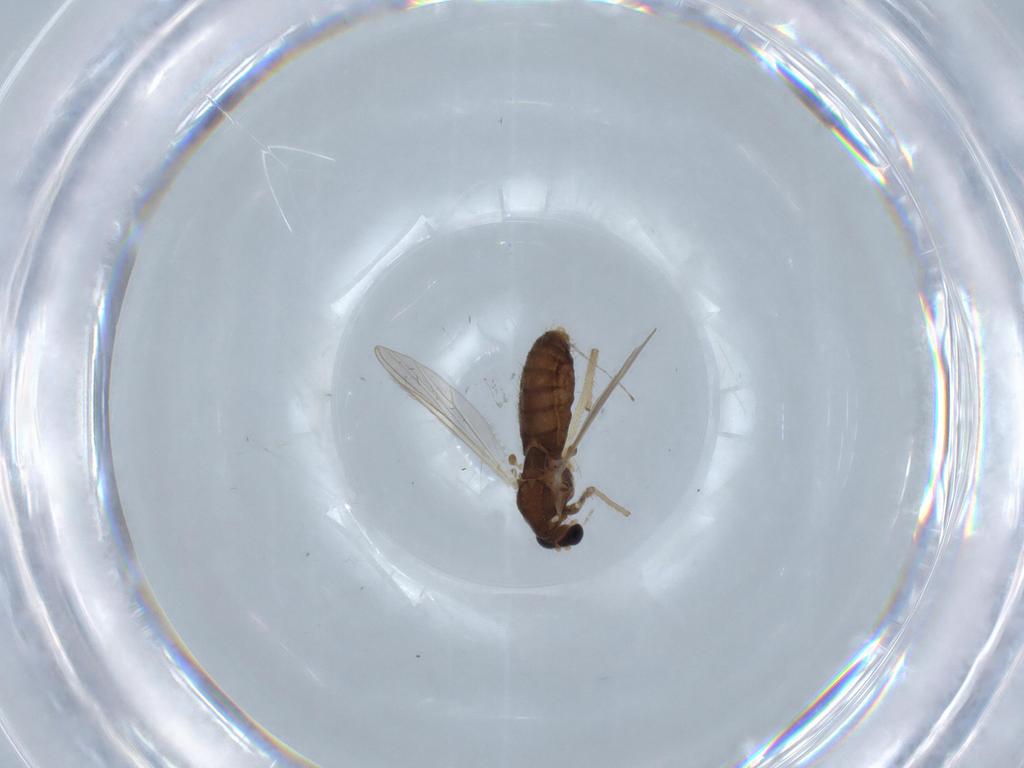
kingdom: Animalia
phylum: Arthropoda
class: Insecta
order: Diptera
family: Chironomidae
